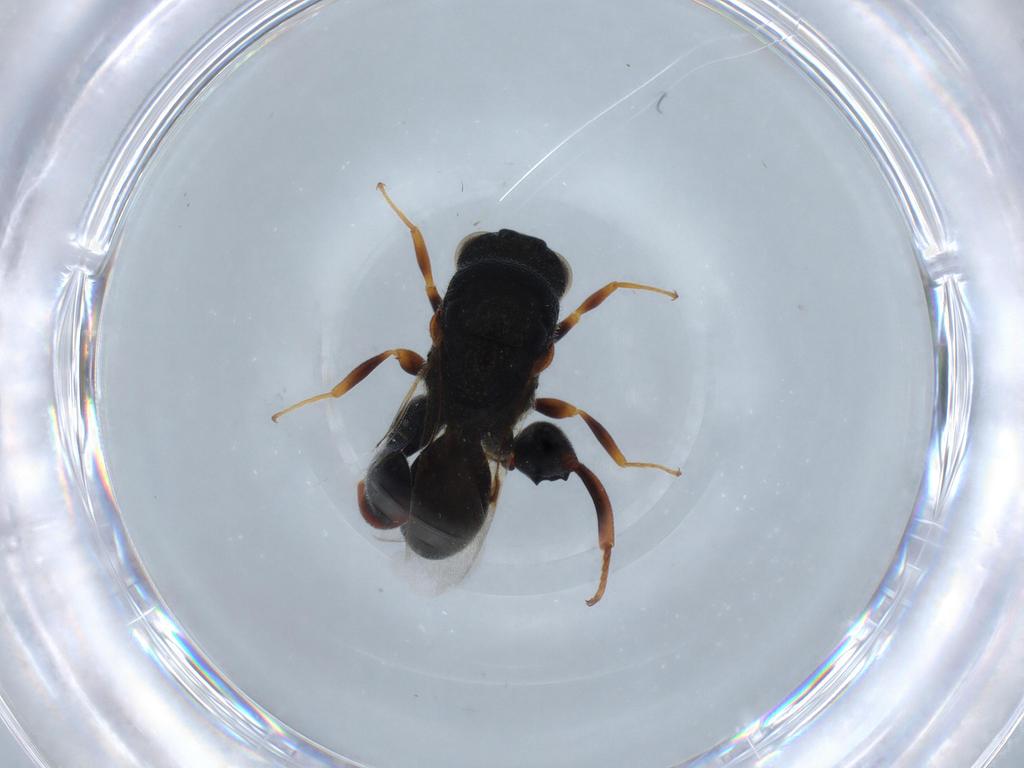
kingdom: Animalia
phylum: Arthropoda
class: Insecta
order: Hymenoptera
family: Chalcididae
